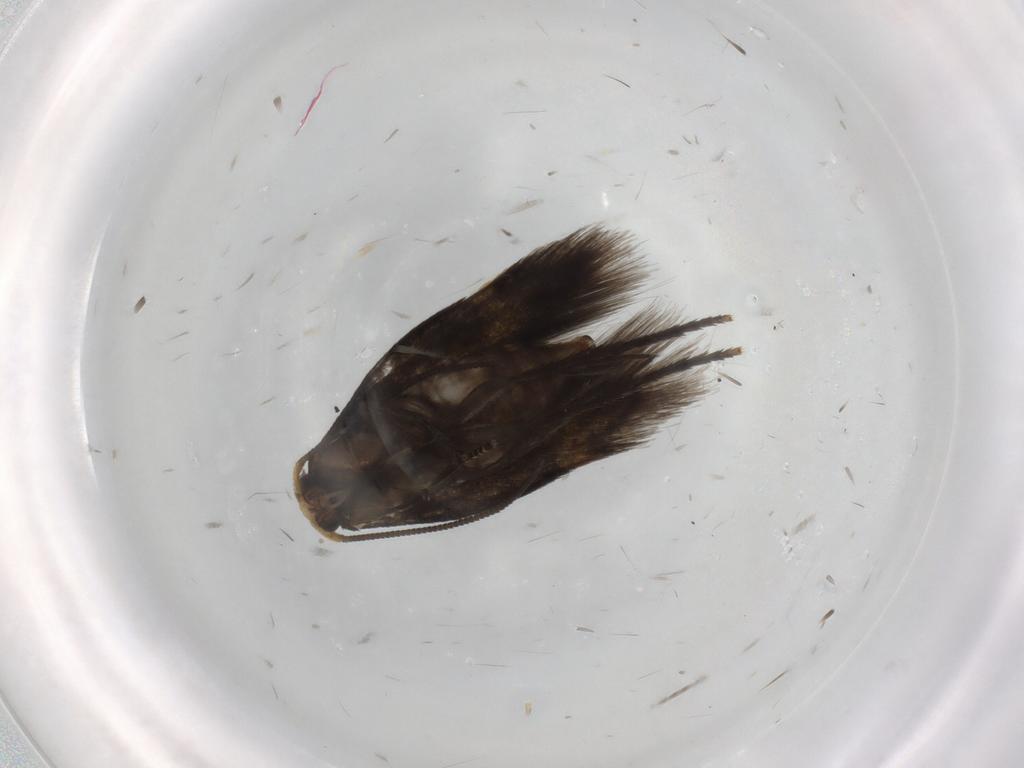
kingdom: Animalia
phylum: Arthropoda
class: Insecta
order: Lepidoptera
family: Nepticulidae
